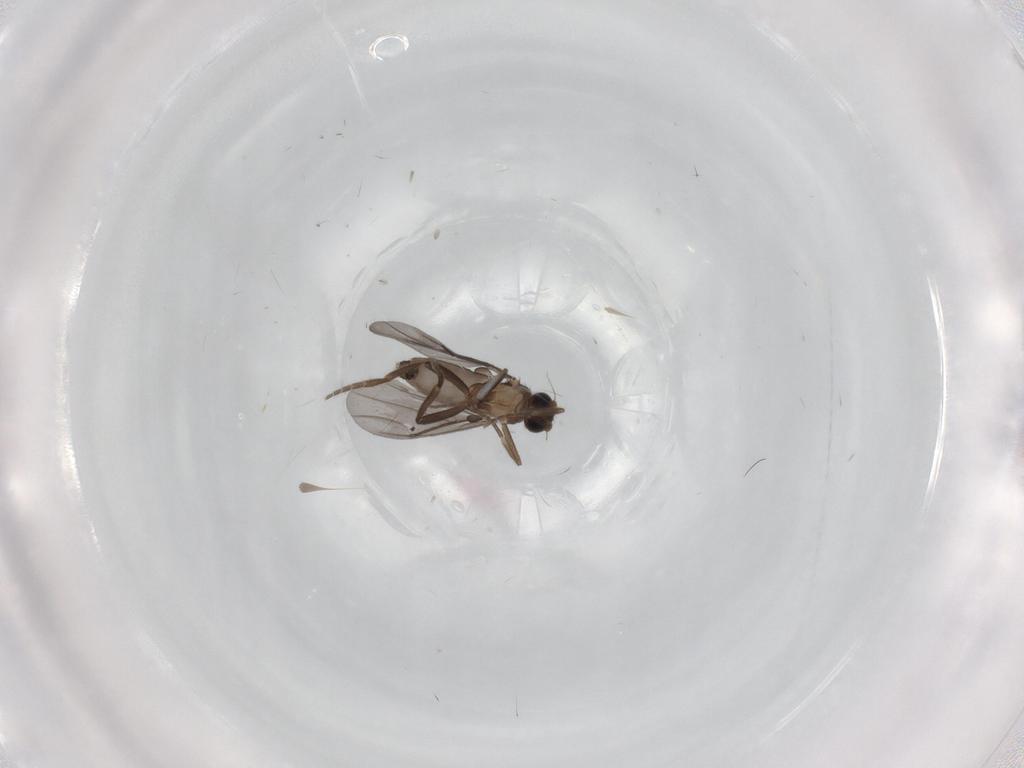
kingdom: Animalia
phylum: Arthropoda
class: Insecta
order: Diptera
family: Phoridae
